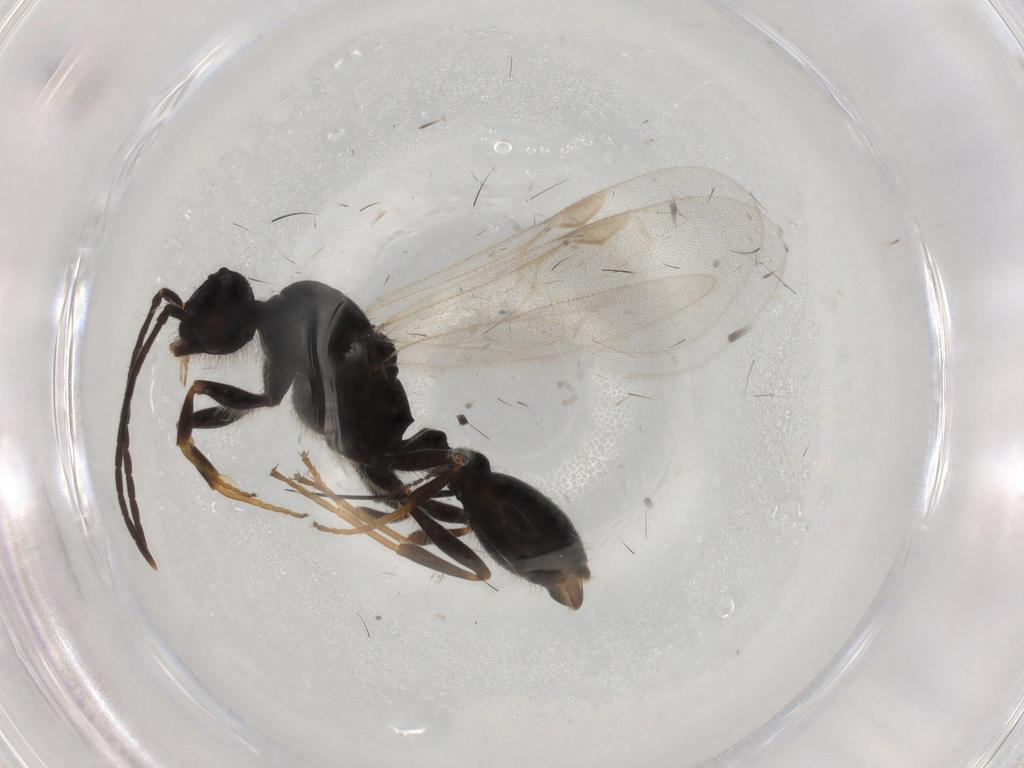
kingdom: Animalia
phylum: Arthropoda
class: Insecta
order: Hymenoptera
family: Formicidae
